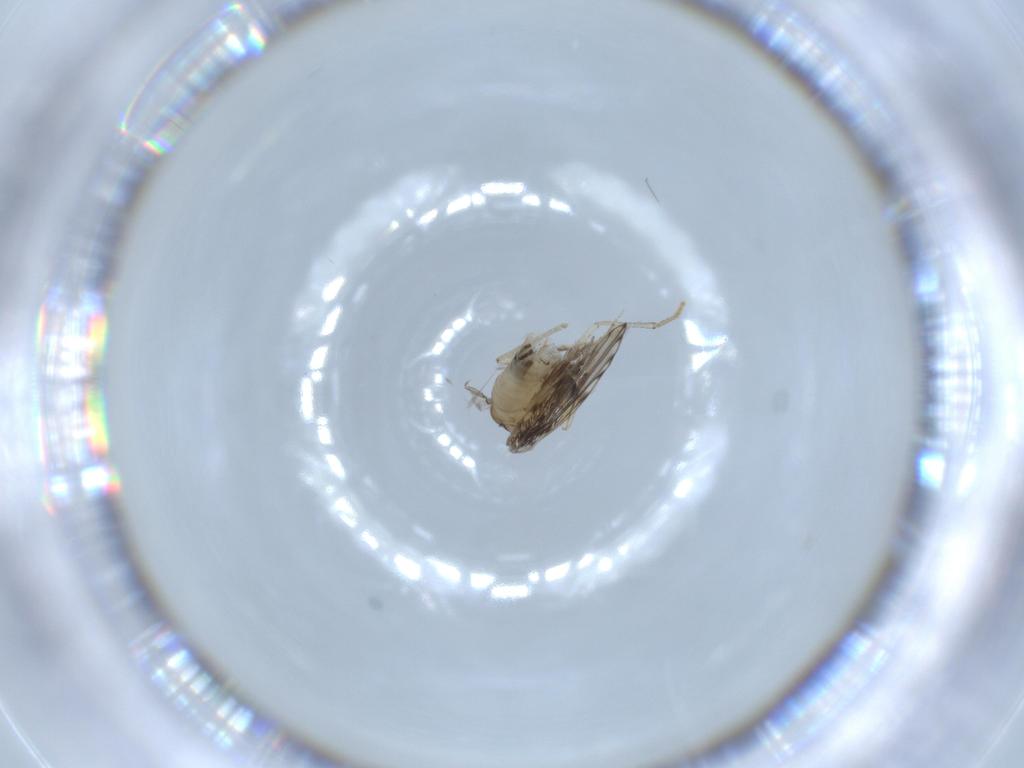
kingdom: Animalia
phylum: Arthropoda
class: Insecta
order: Diptera
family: Psychodidae
